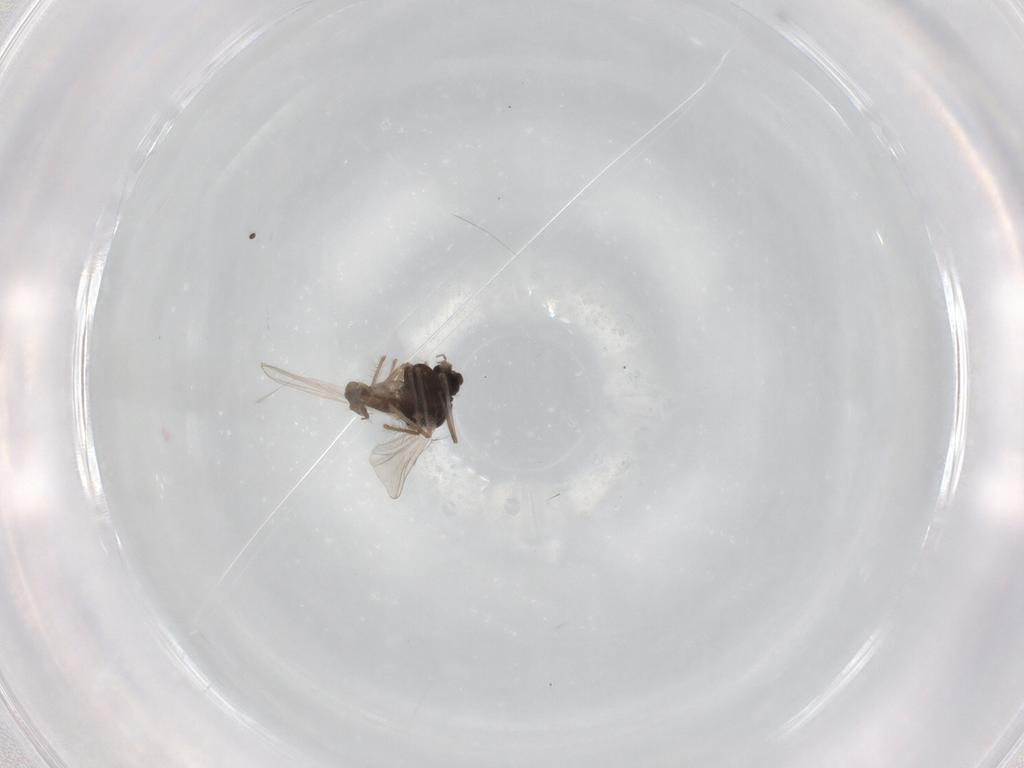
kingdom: Animalia
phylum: Arthropoda
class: Insecta
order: Diptera
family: Chironomidae
